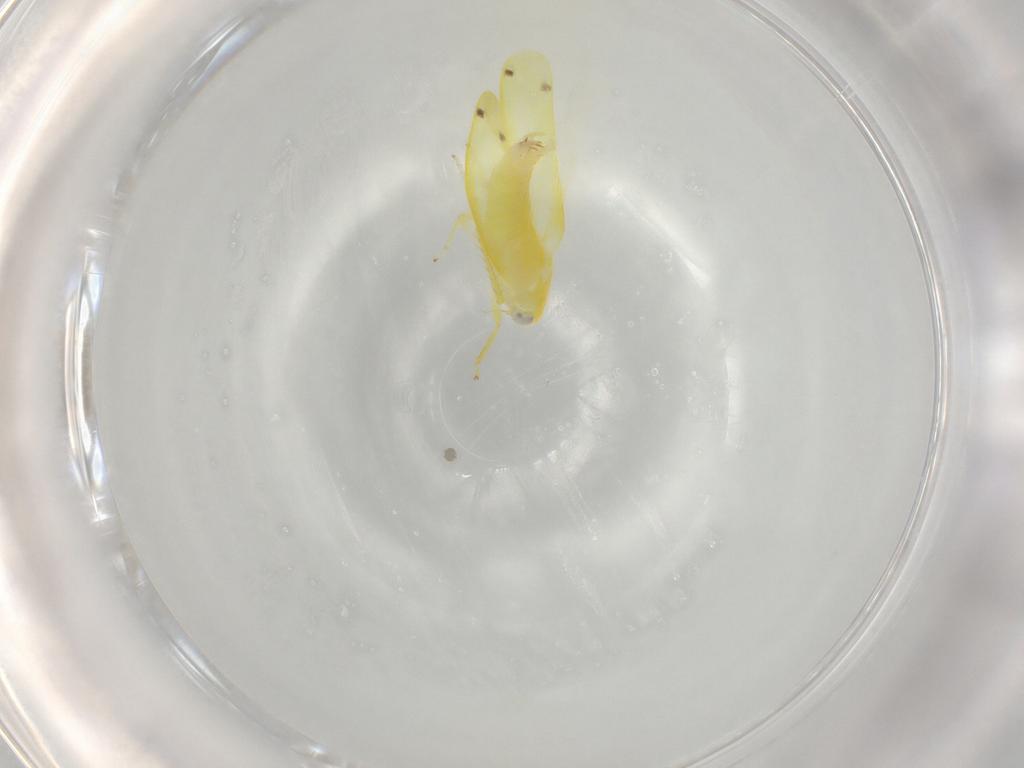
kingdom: Animalia
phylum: Arthropoda
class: Insecta
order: Hemiptera
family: Cicadellidae
